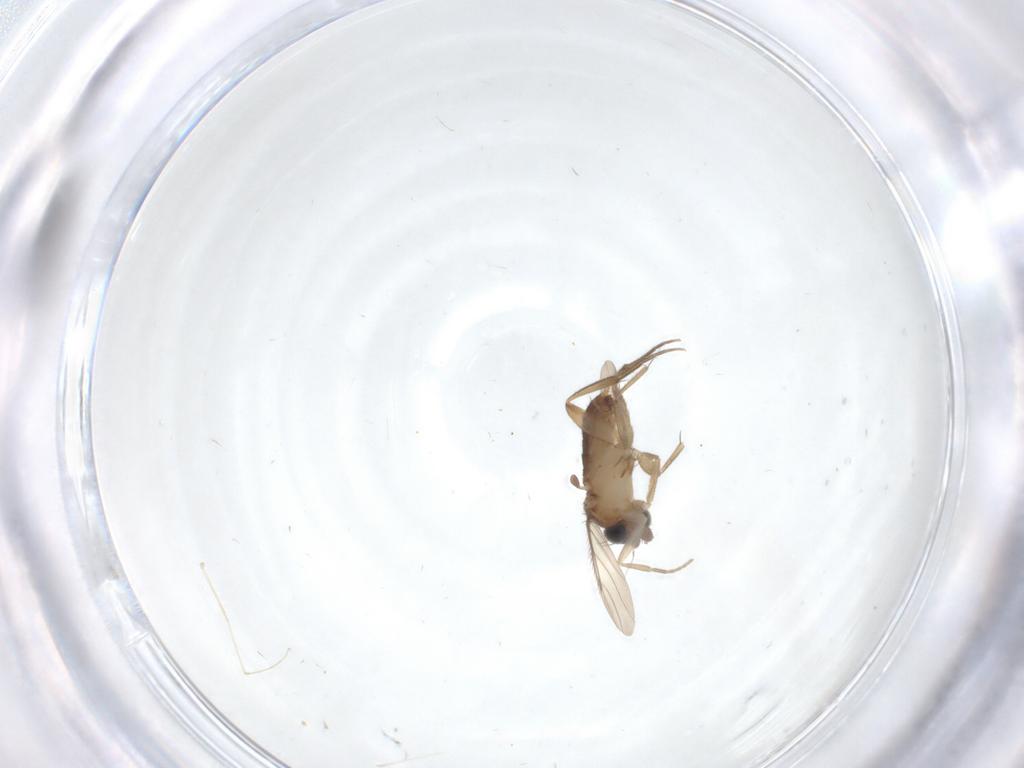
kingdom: Animalia
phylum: Arthropoda
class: Insecta
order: Diptera
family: Phoridae
